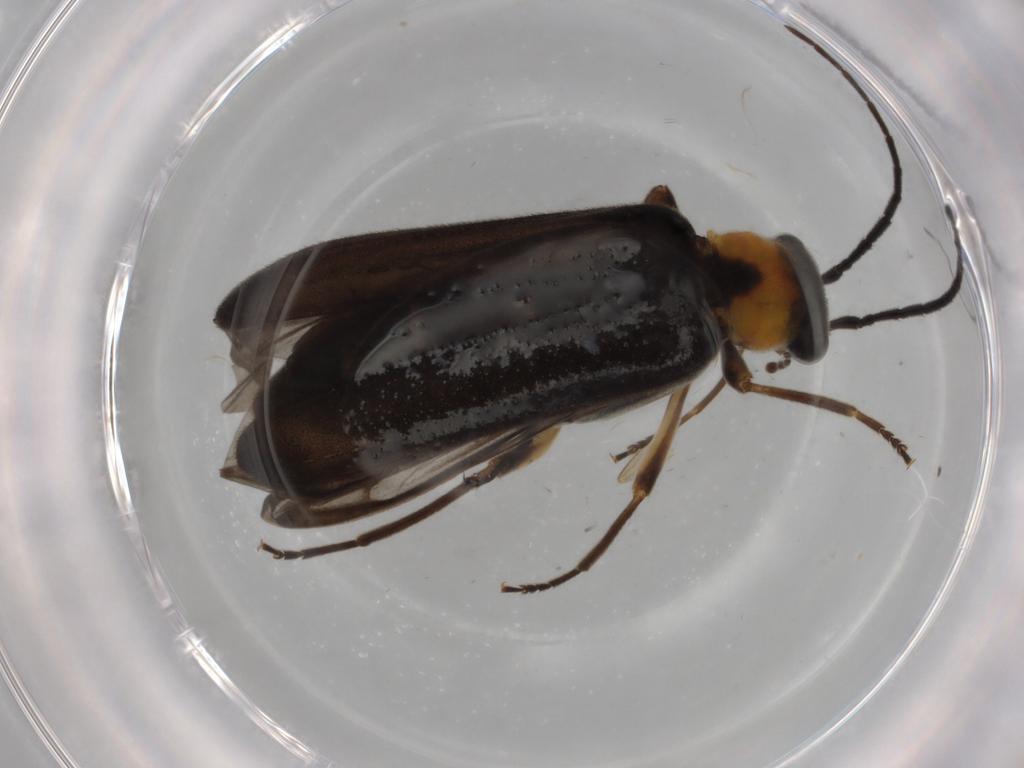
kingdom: Animalia
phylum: Arthropoda
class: Insecta
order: Coleoptera
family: Oedemeridae
